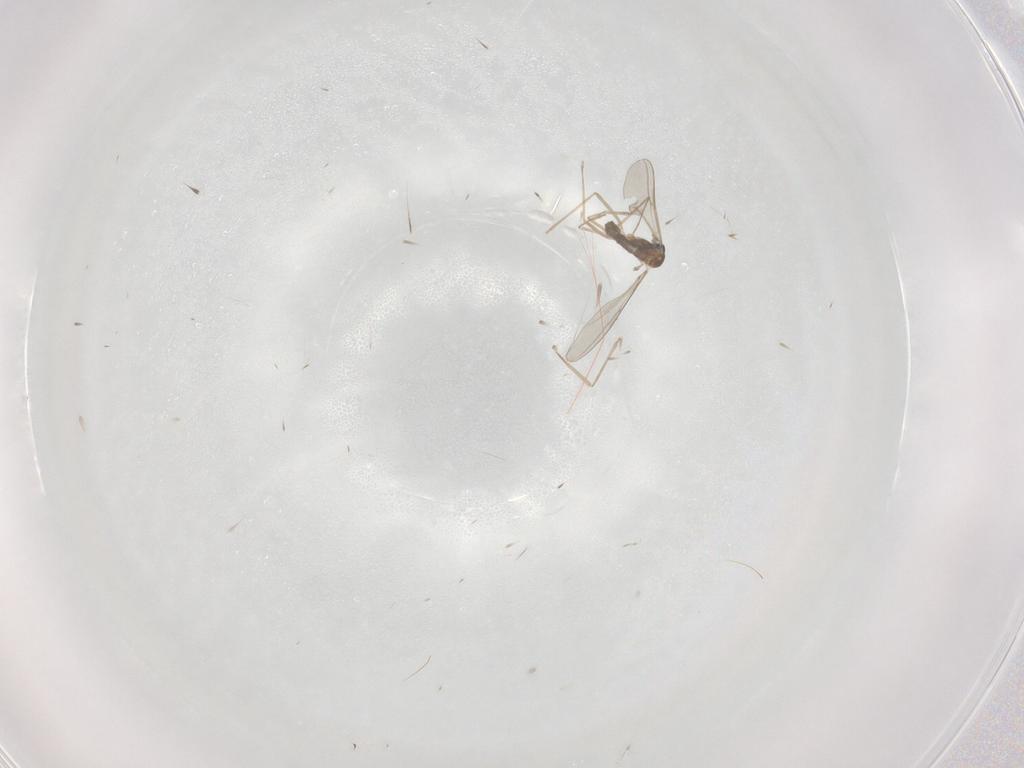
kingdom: Animalia
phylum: Arthropoda
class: Insecta
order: Diptera
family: Cecidomyiidae
